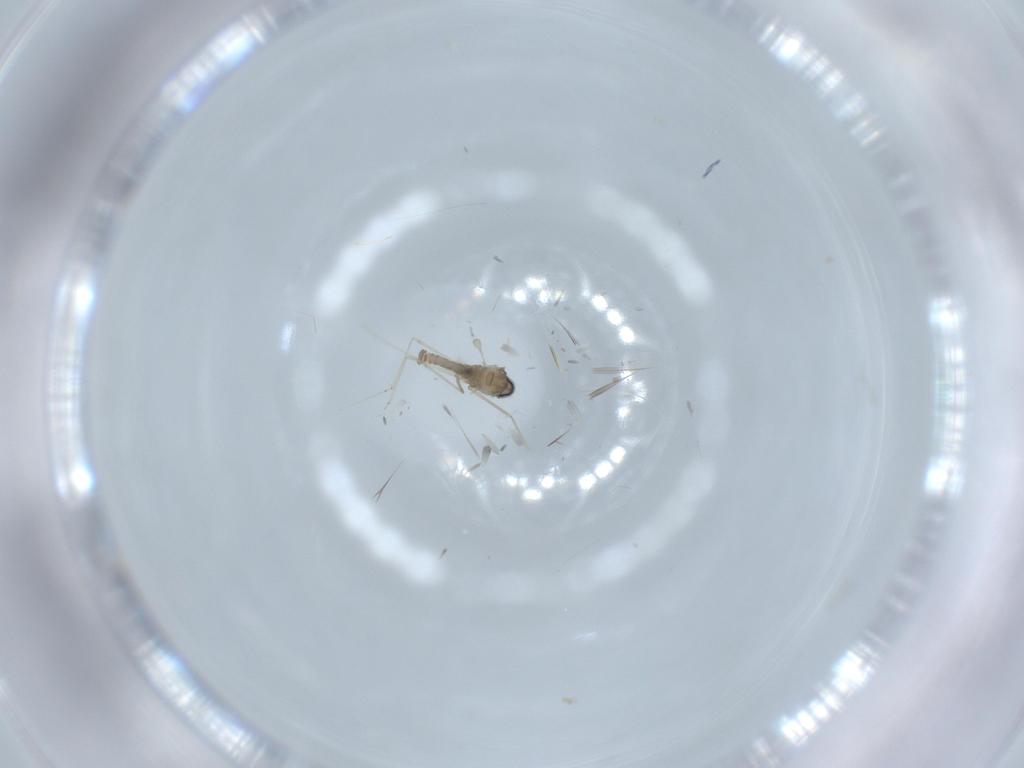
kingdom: Animalia
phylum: Arthropoda
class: Insecta
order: Diptera
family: Cecidomyiidae
